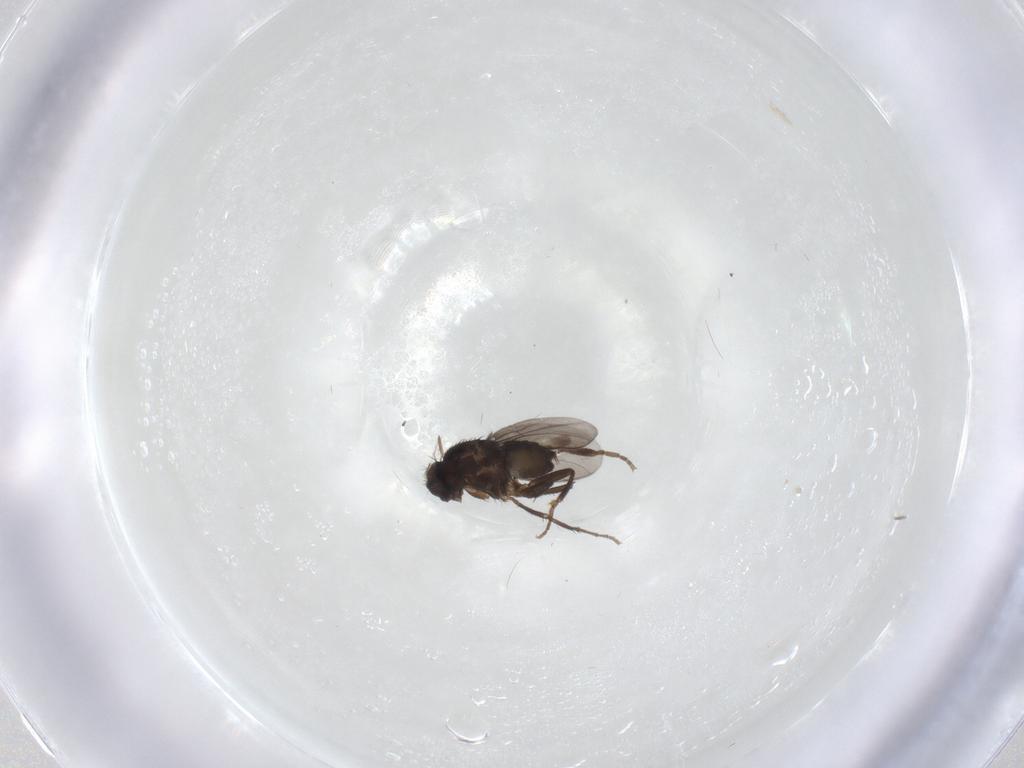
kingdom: Animalia
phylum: Arthropoda
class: Insecta
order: Diptera
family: Sphaeroceridae
